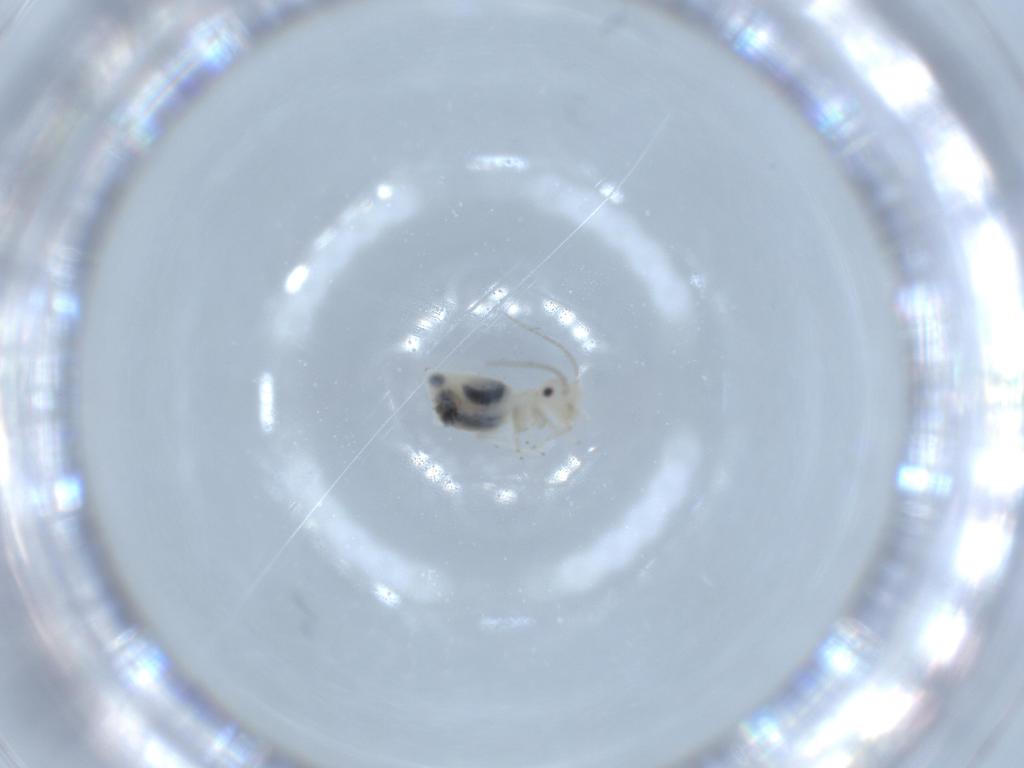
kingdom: Animalia
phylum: Arthropoda
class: Insecta
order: Psocodea
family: Caeciliusidae
